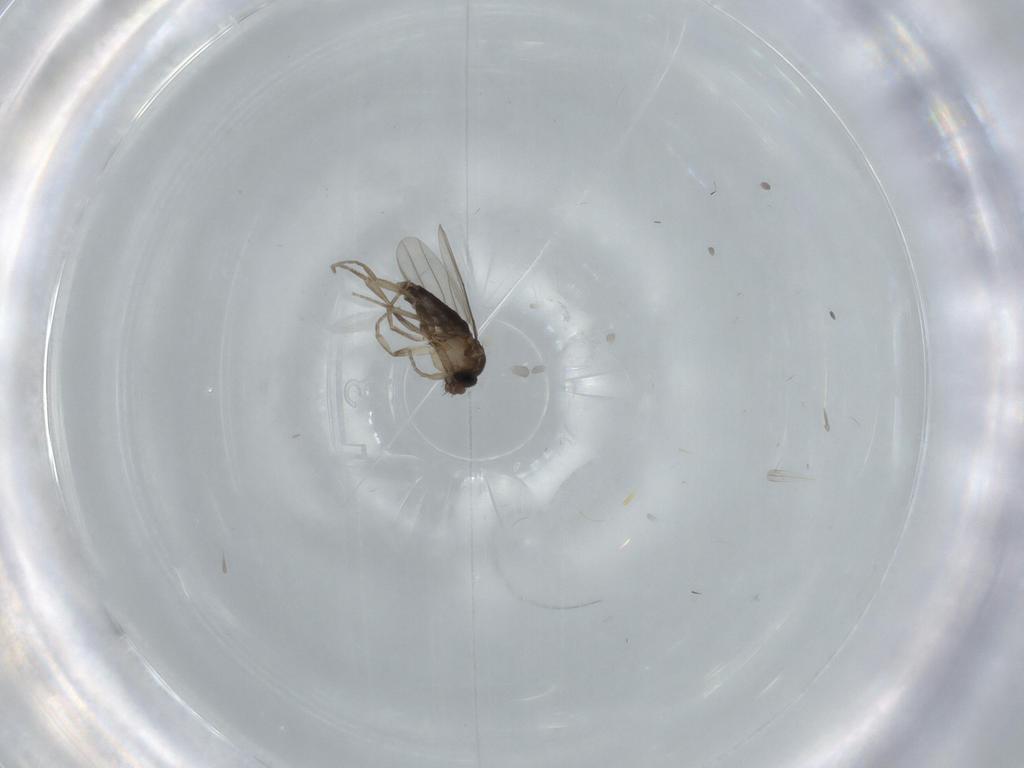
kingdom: Animalia
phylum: Arthropoda
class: Insecta
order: Diptera
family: Phoridae
